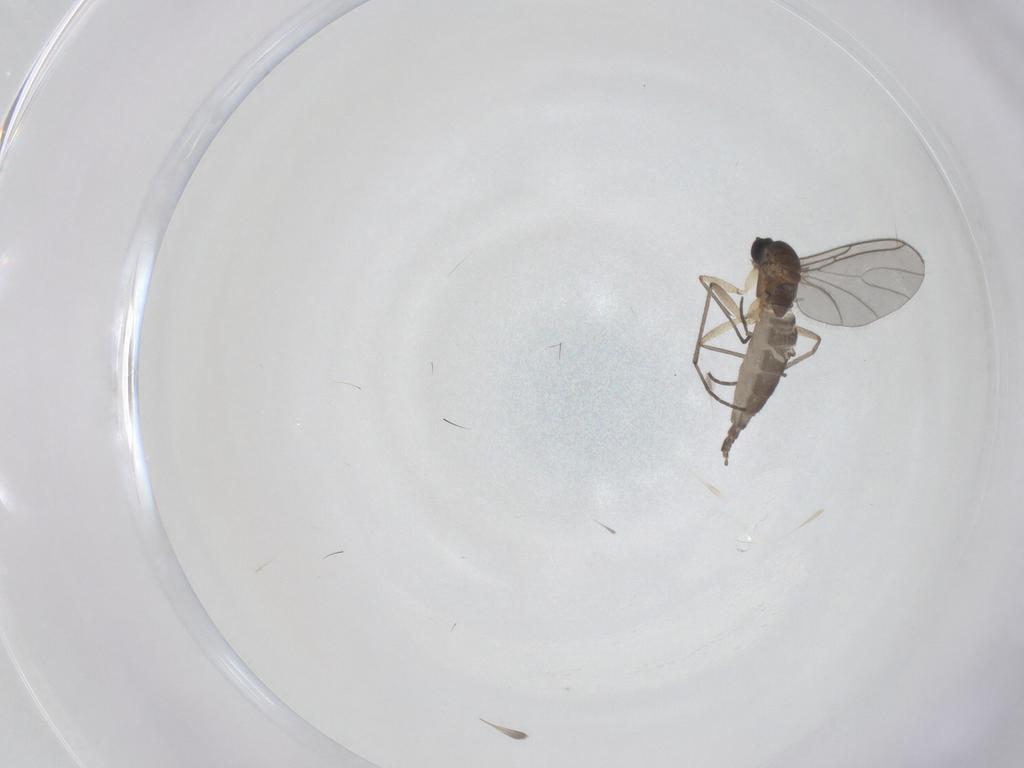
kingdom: Animalia
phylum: Arthropoda
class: Insecta
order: Diptera
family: Sciaridae
